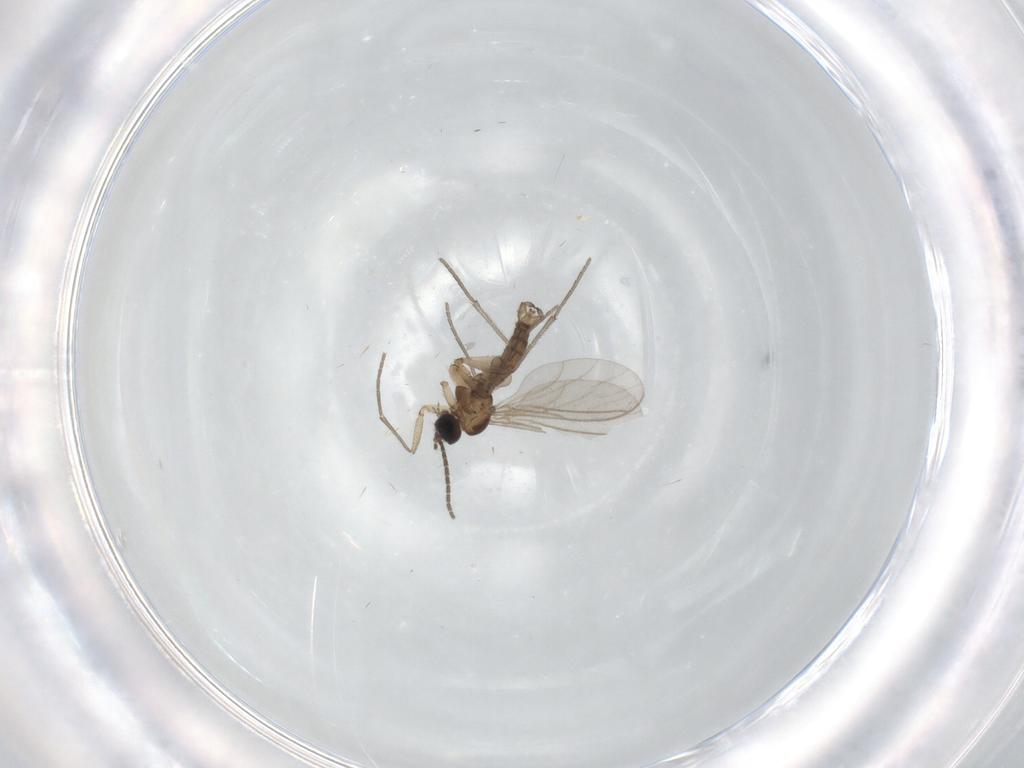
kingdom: Animalia
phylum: Arthropoda
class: Insecta
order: Diptera
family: Sciaridae
